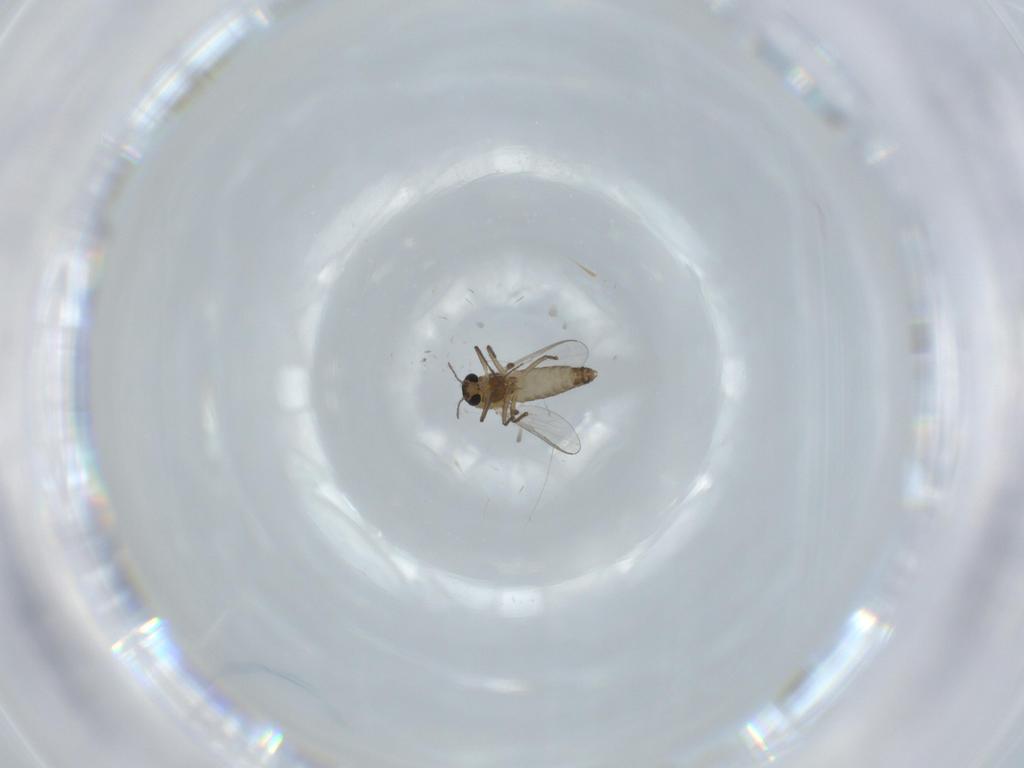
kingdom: Animalia
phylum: Arthropoda
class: Insecta
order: Diptera
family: Chironomidae
